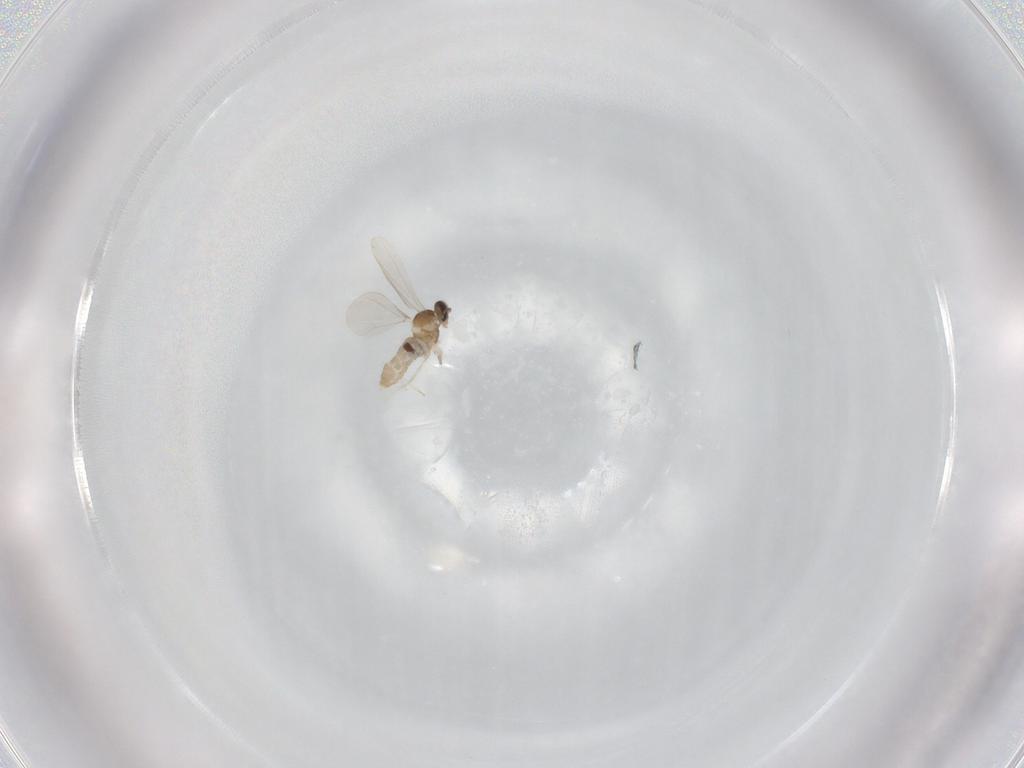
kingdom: Animalia
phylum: Arthropoda
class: Insecta
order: Diptera
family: Cecidomyiidae
